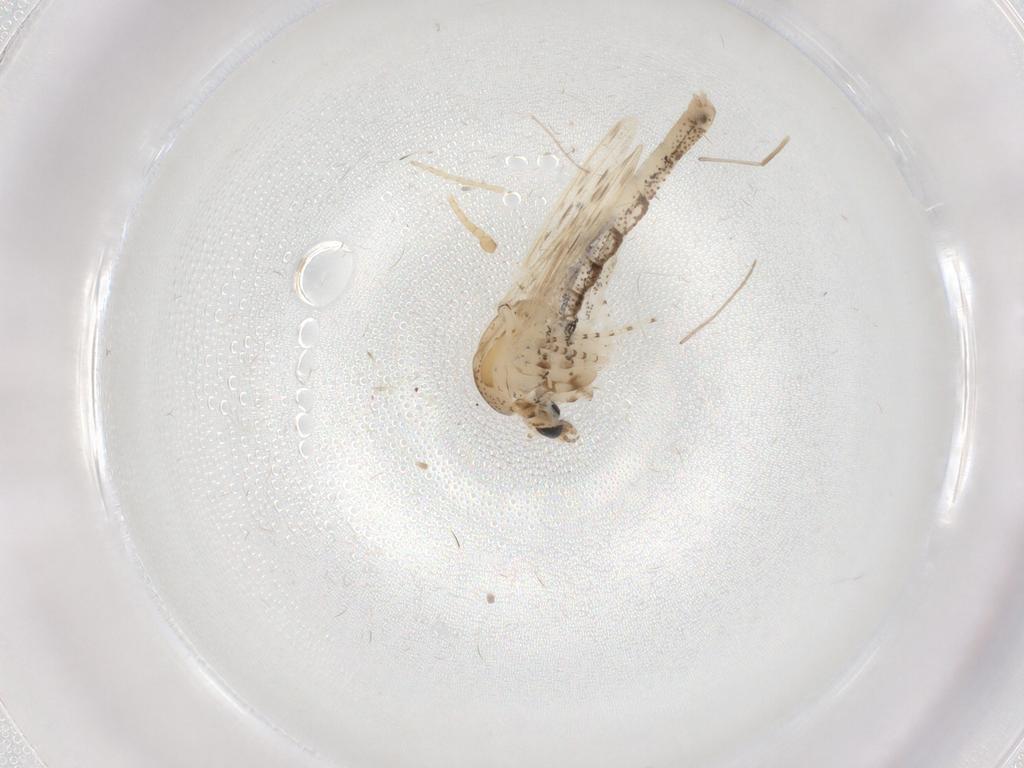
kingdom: Animalia
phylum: Arthropoda
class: Insecta
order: Diptera
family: Chaoboridae
